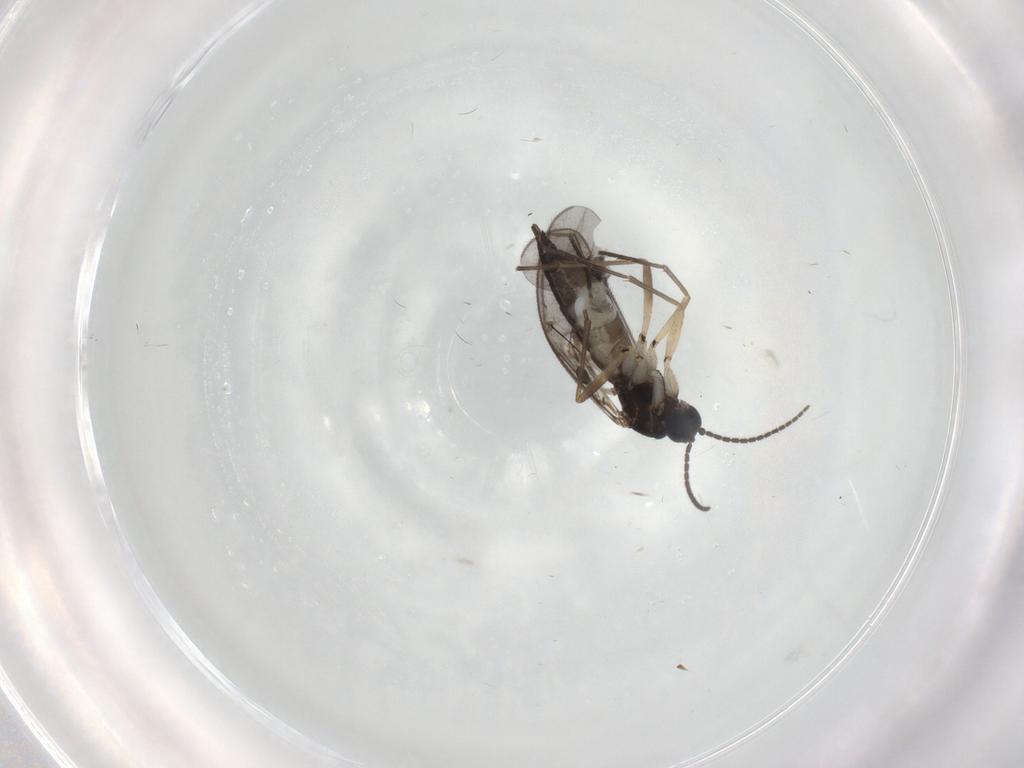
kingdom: Animalia
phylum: Arthropoda
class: Insecta
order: Diptera
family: Sciaridae
